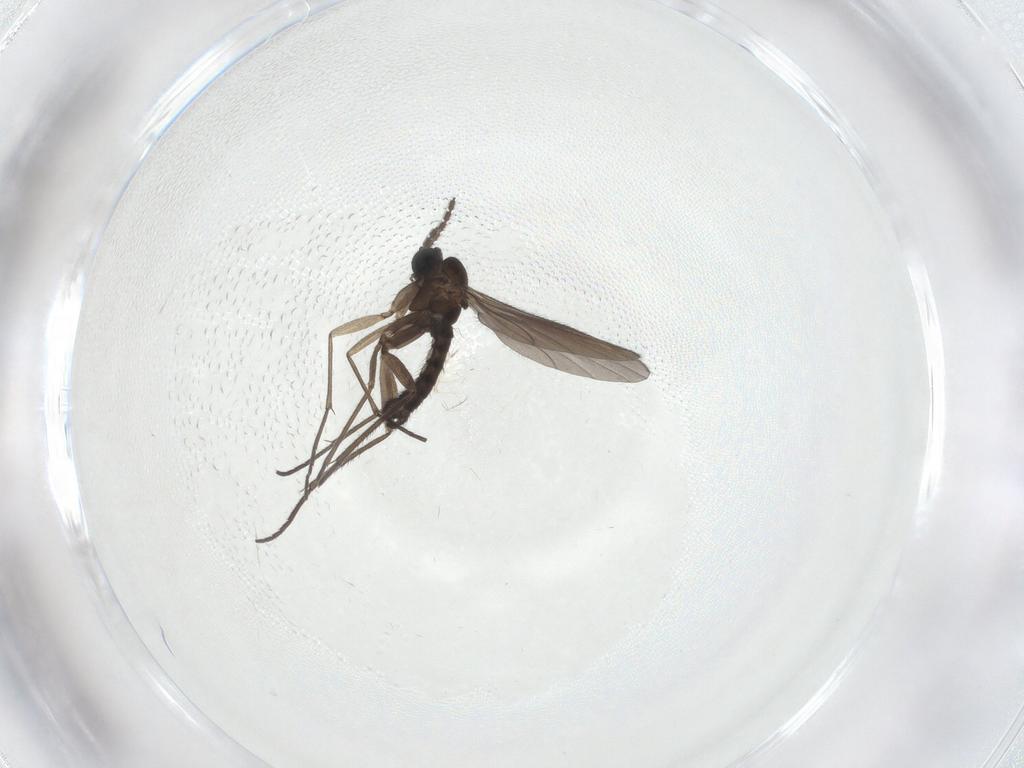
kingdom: Animalia
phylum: Arthropoda
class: Insecta
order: Diptera
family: Sciaridae
